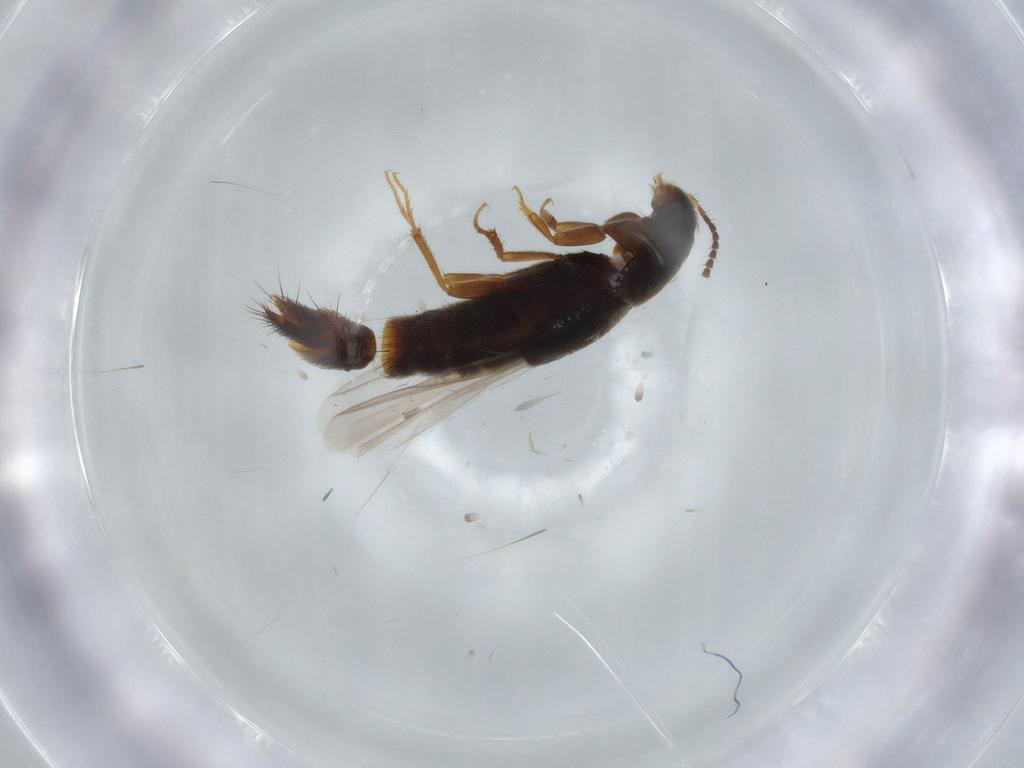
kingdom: Animalia
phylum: Arthropoda
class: Insecta
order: Coleoptera
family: Staphylinidae
